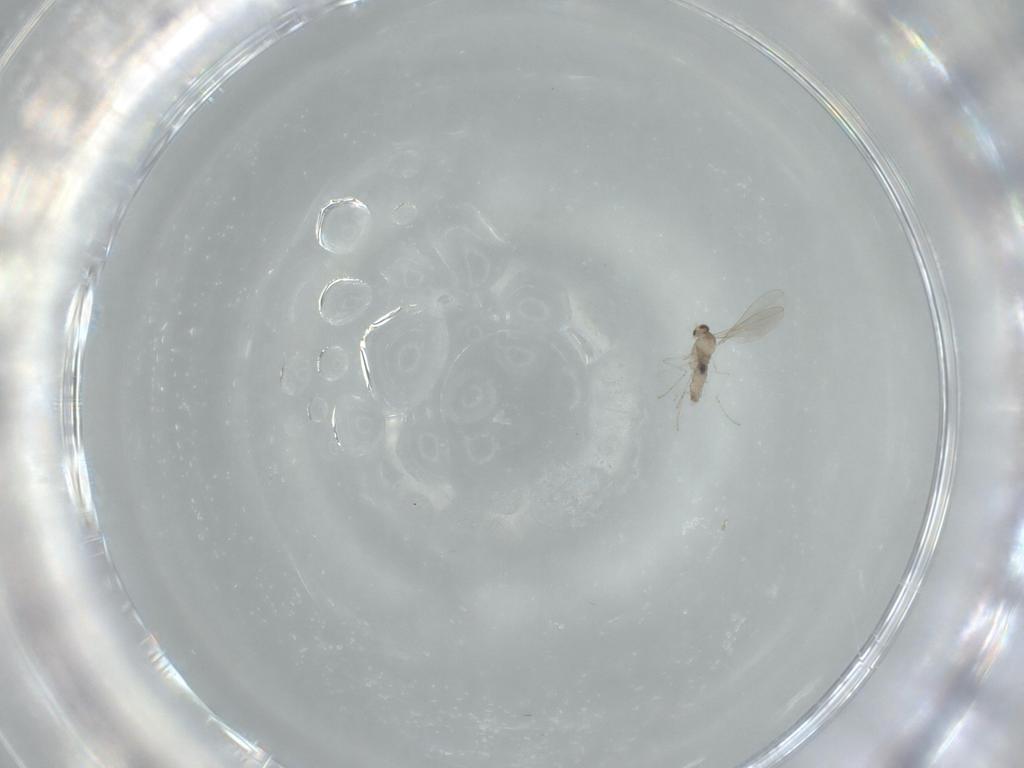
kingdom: Animalia
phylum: Arthropoda
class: Insecta
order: Diptera
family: Cecidomyiidae
